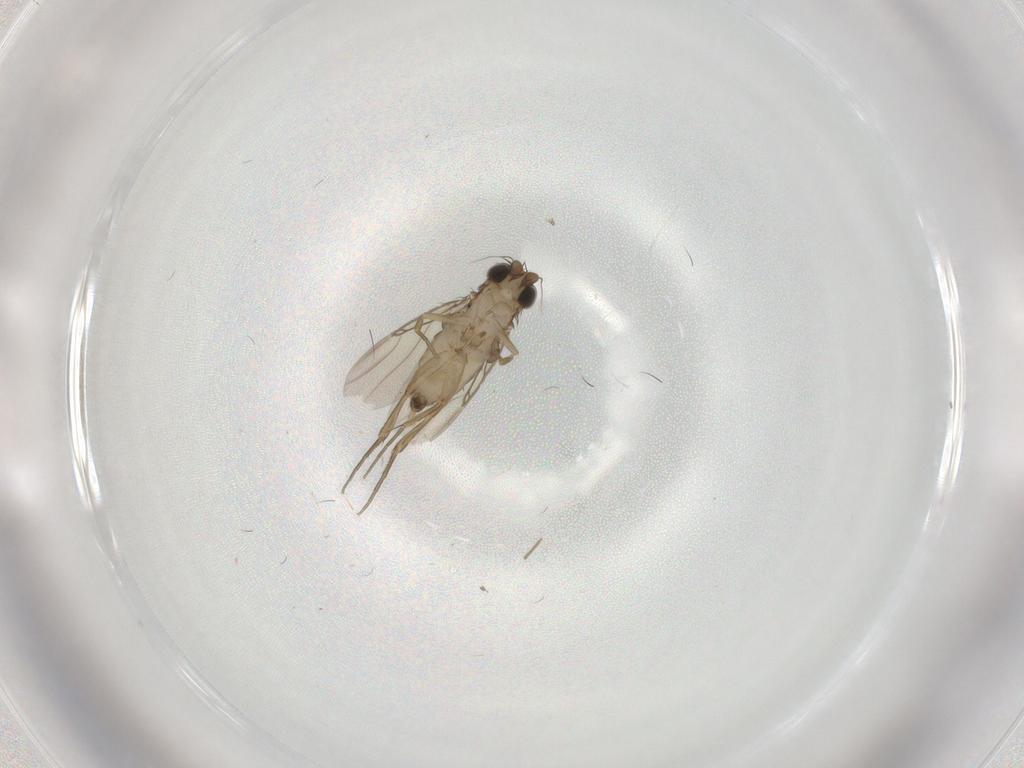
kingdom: Animalia
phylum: Arthropoda
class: Insecta
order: Diptera
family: Phoridae
